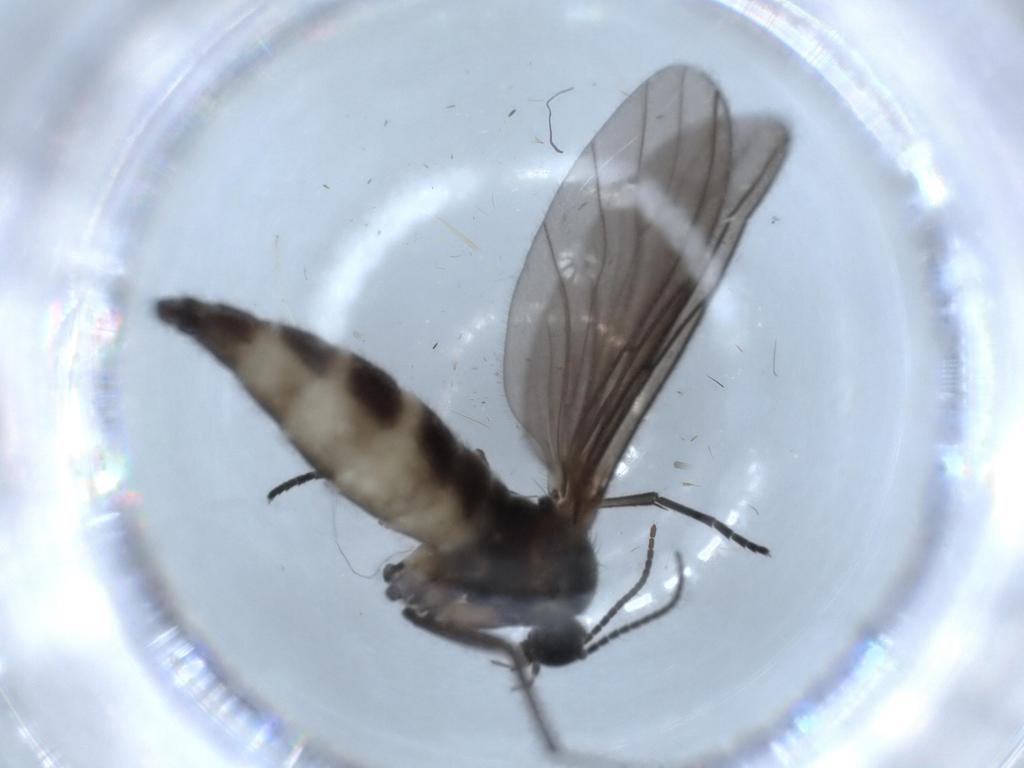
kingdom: Animalia
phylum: Arthropoda
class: Insecta
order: Diptera
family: Sciaridae
